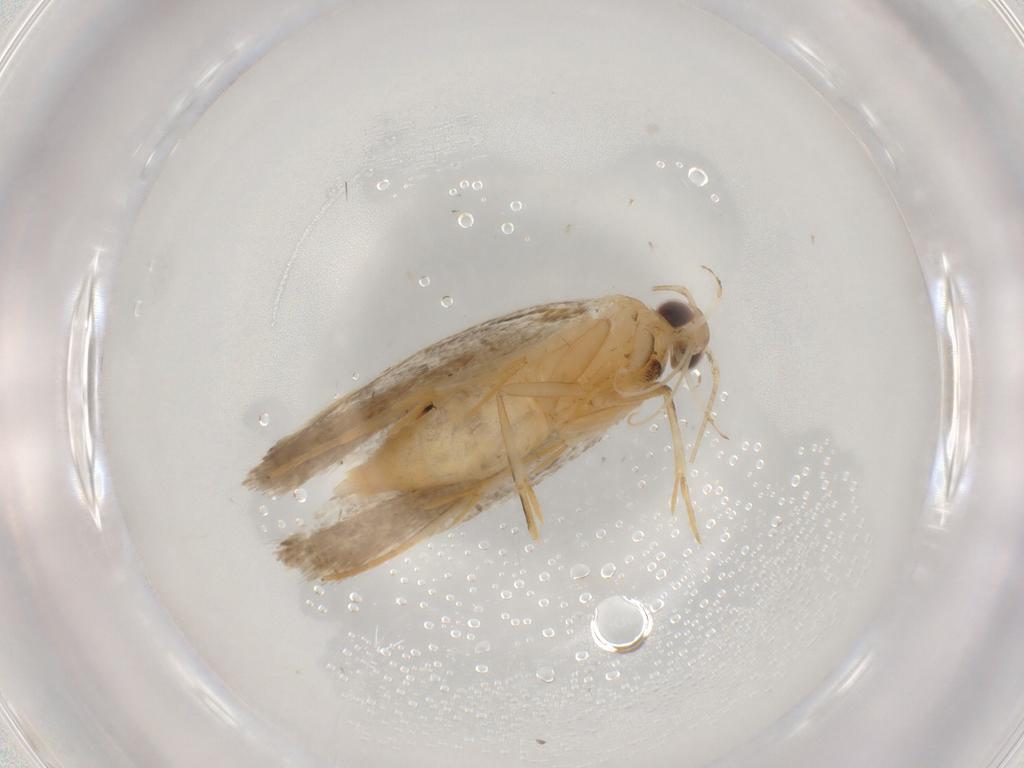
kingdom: Animalia
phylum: Arthropoda
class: Insecta
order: Lepidoptera
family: Autostichidae
